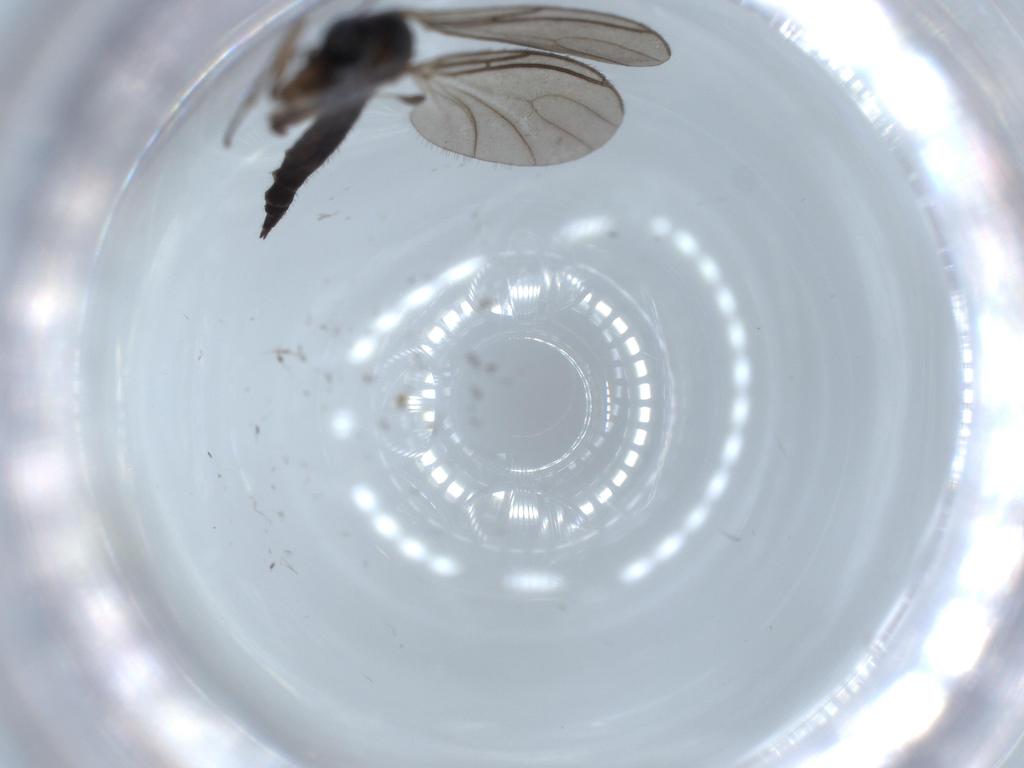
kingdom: Animalia
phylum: Arthropoda
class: Insecta
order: Diptera
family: Sciaridae
